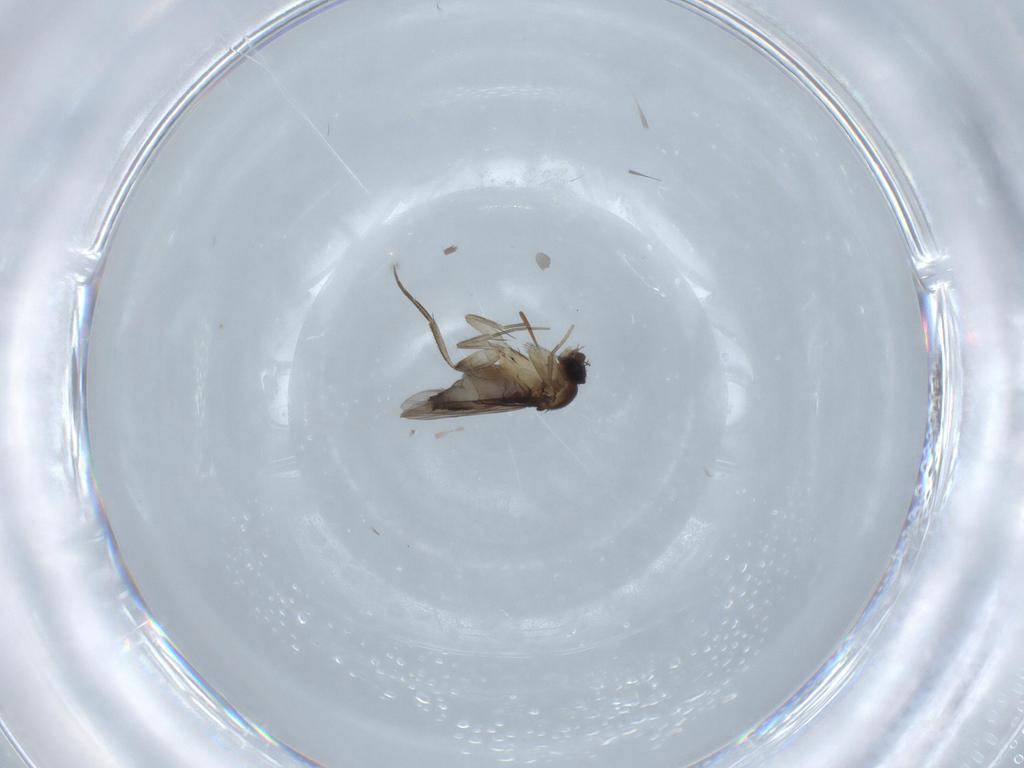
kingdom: Animalia
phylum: Arthropoda
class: Insecta
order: Diptera
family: Phoridae
